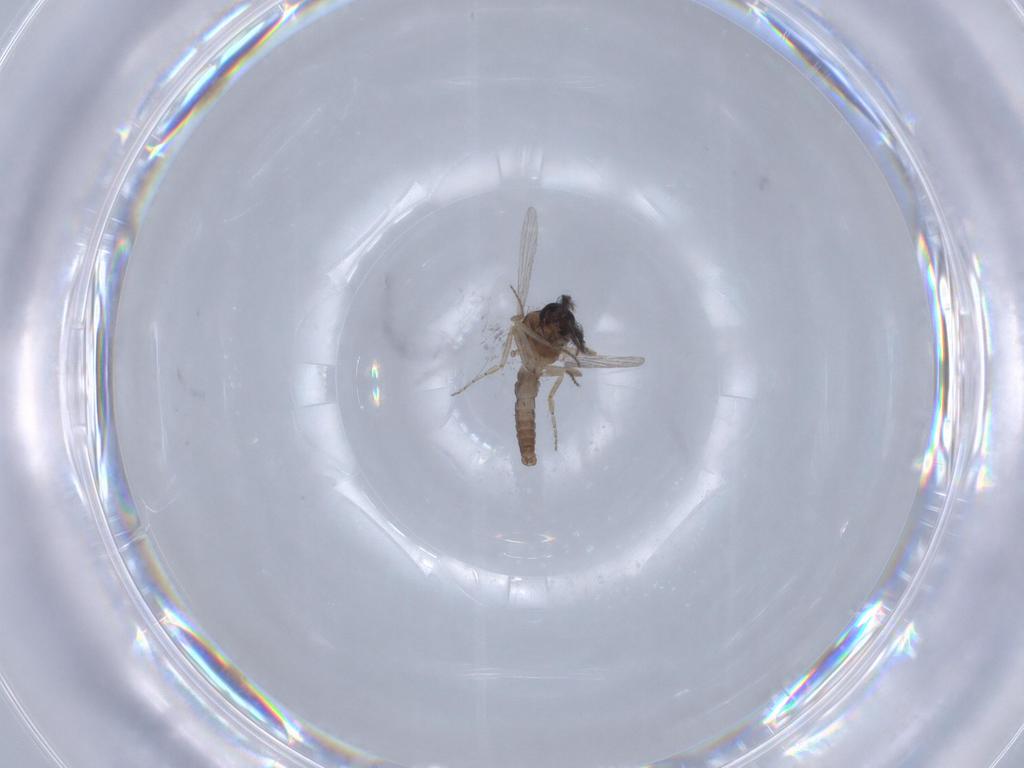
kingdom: Animalia
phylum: Arthropoda
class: Insecta
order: Diptera
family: Ceratopogonidae
